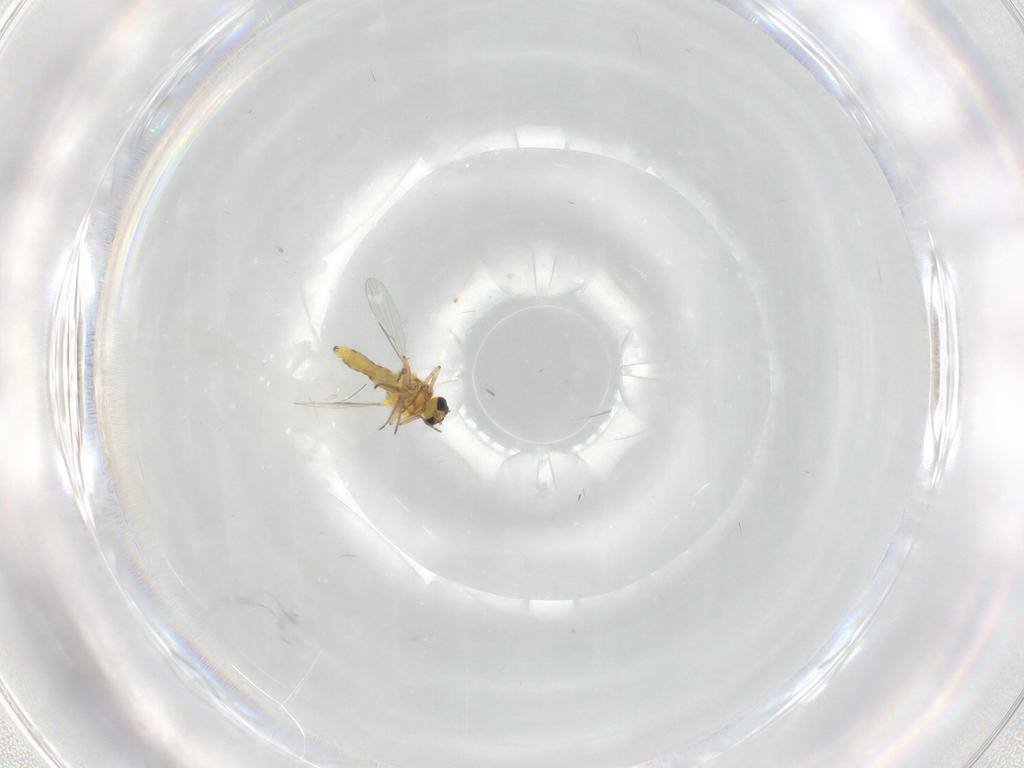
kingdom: Animalia
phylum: Arthropoda
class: Insecta
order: Diptera
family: Ceratopogonidae
